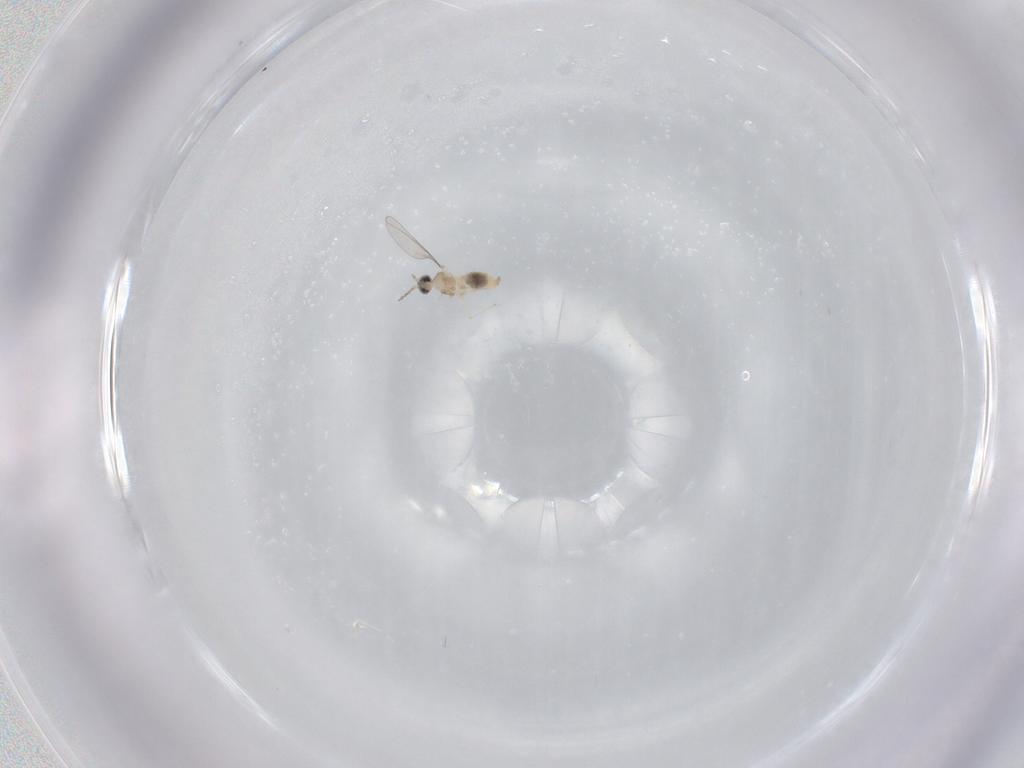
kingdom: Animalia
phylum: Arthropoda
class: Insecta
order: Diptera
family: Cecidomyiidae
